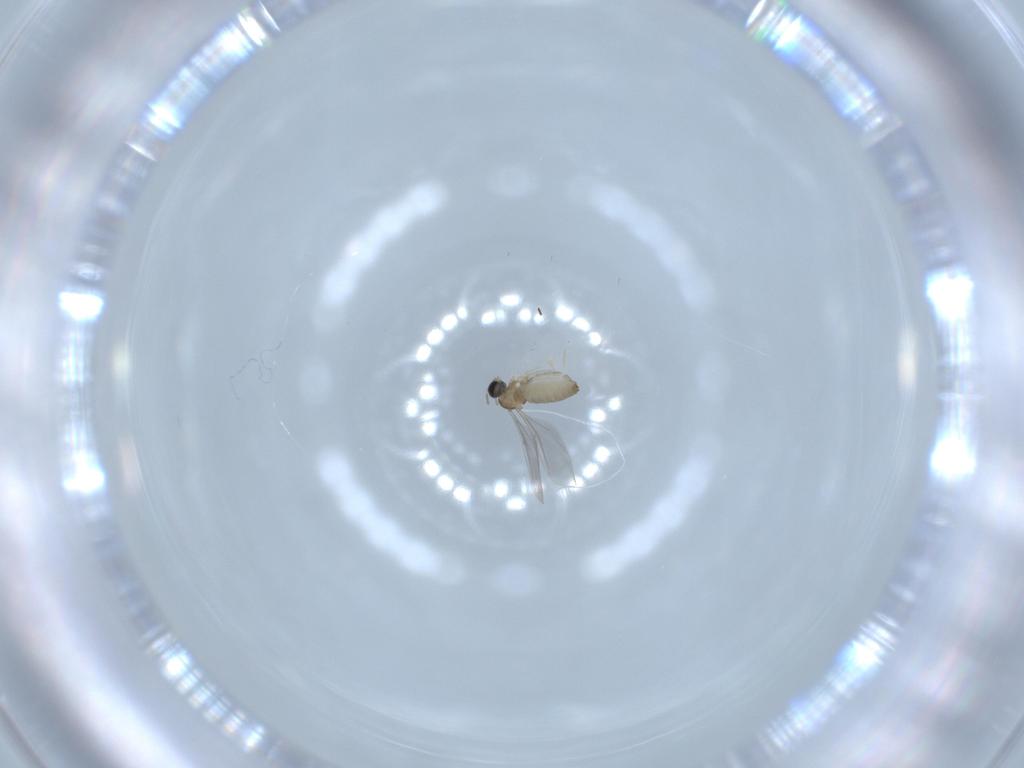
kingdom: Animalia
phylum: Arthropoda
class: Insecta
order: Diptera
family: Cecidomyiidae
